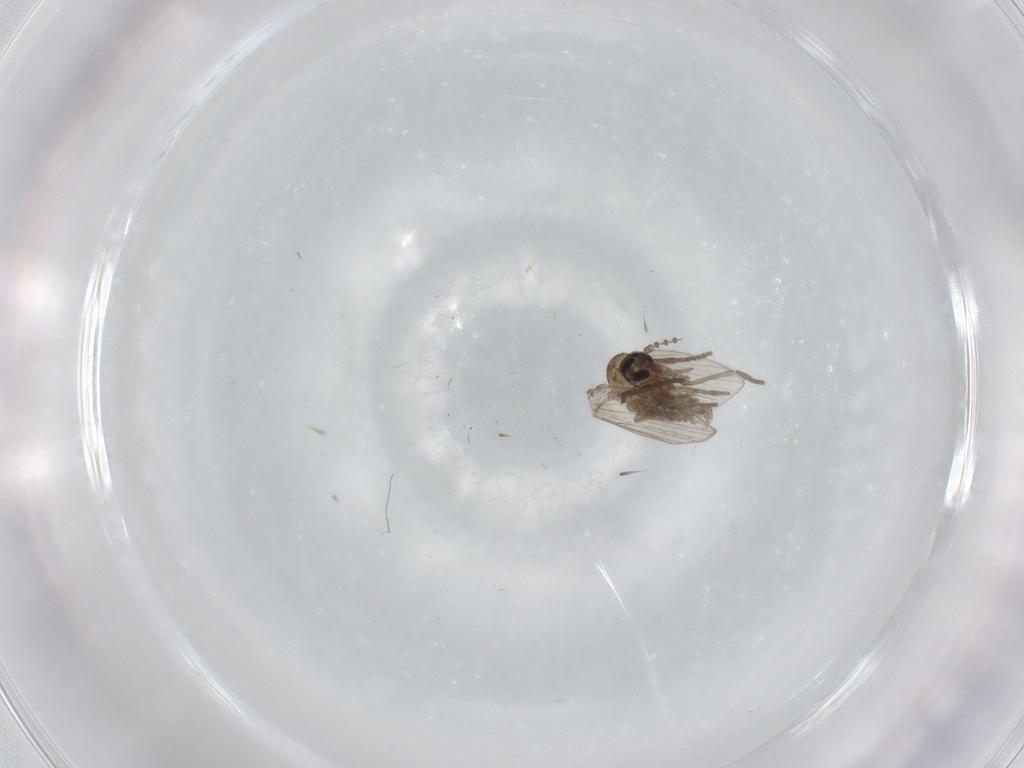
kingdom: Animalia
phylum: Arthropoda
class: Insecta
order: Diptera
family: Psychodidae
